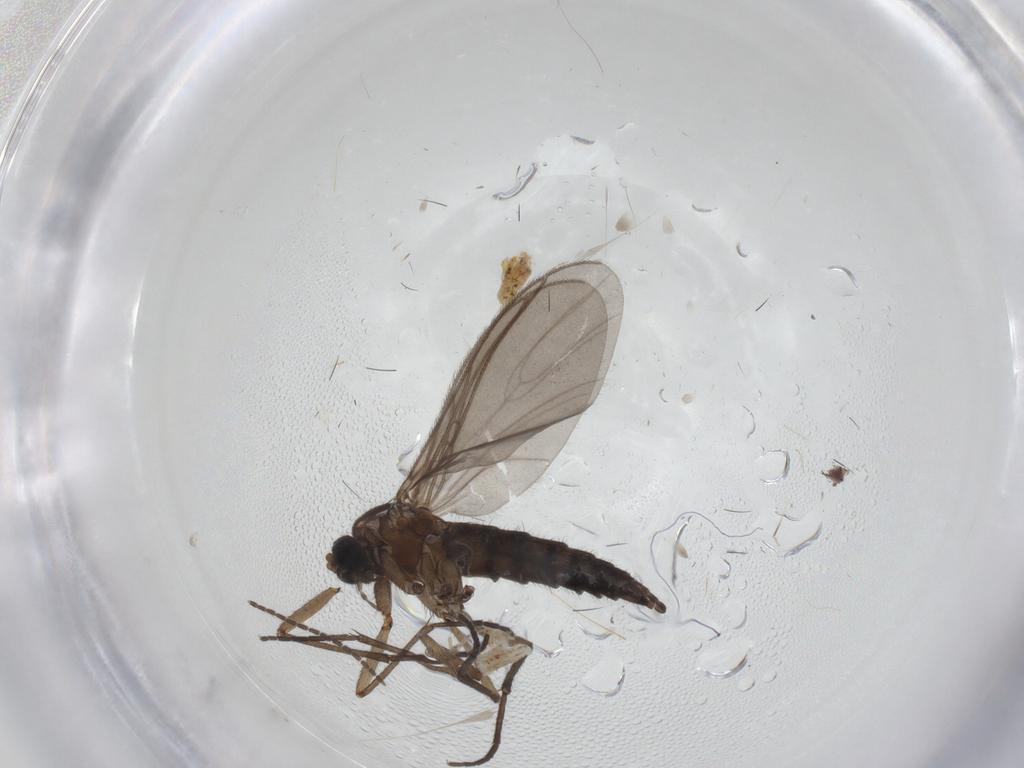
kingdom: Animalia
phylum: Arthropoda
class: Insecta
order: Diptera
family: Sciaridae
